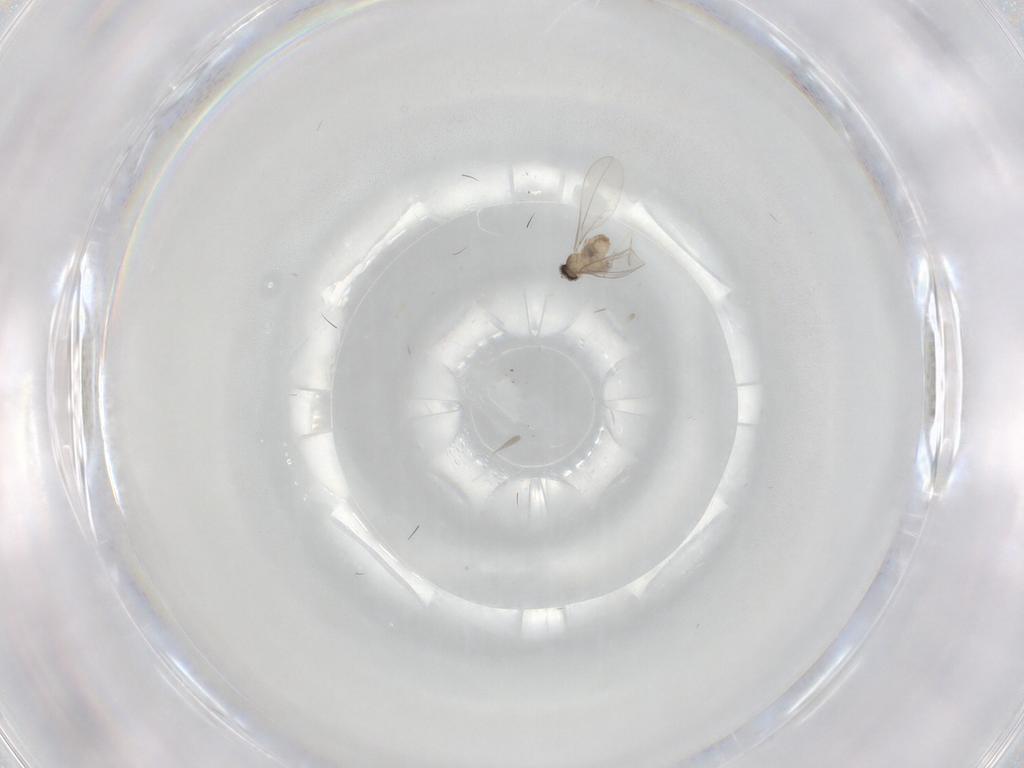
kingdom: Animalia
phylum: Arthropoda
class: Insecta
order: Diptera
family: Cecidomyiidae
